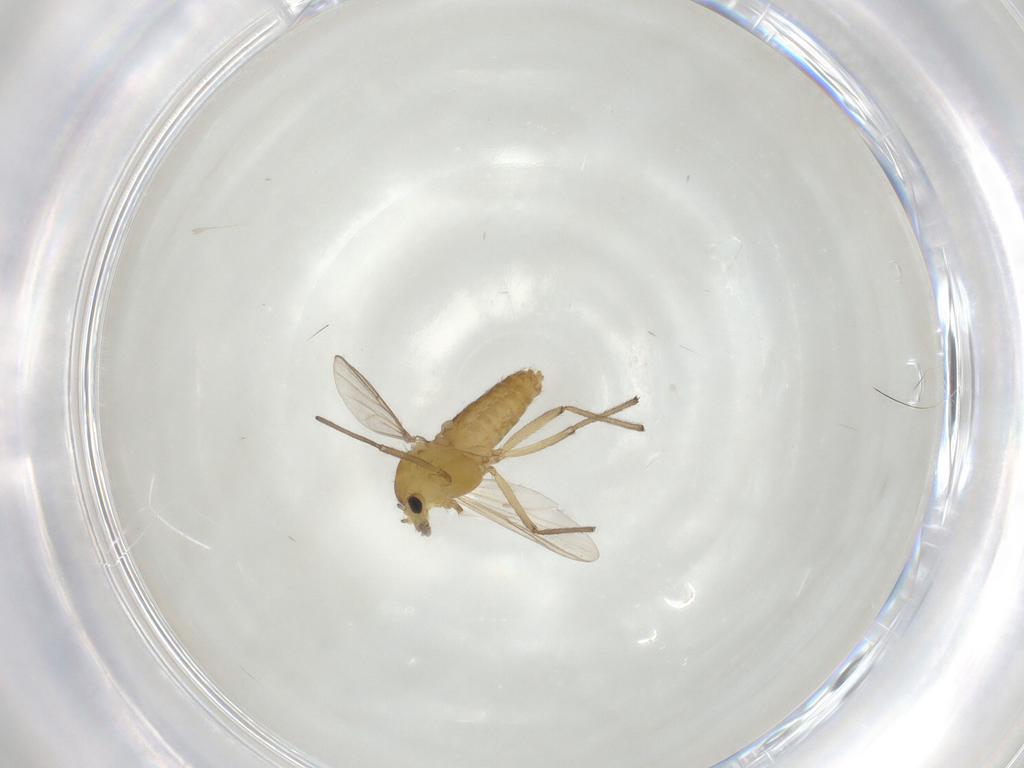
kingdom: Animalia
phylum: Arthropoda
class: Insecta
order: Diptera
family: Chironomidae
